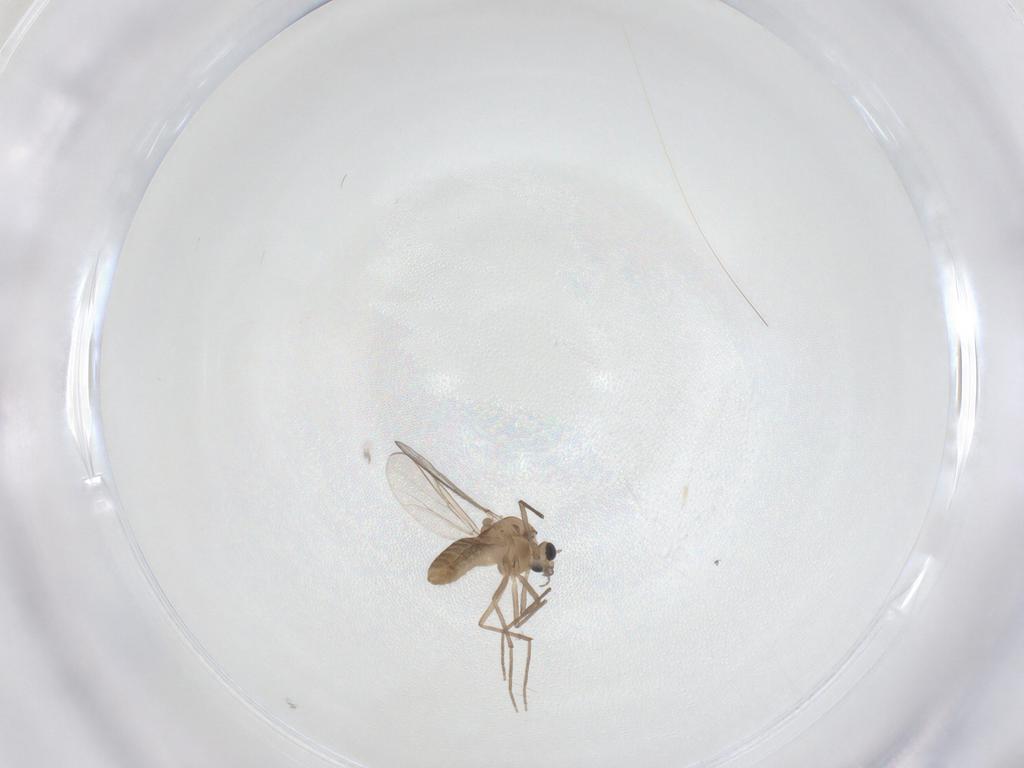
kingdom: Animalia
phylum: Arthropoda
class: Insecta
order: Diptera
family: Chironomidae
